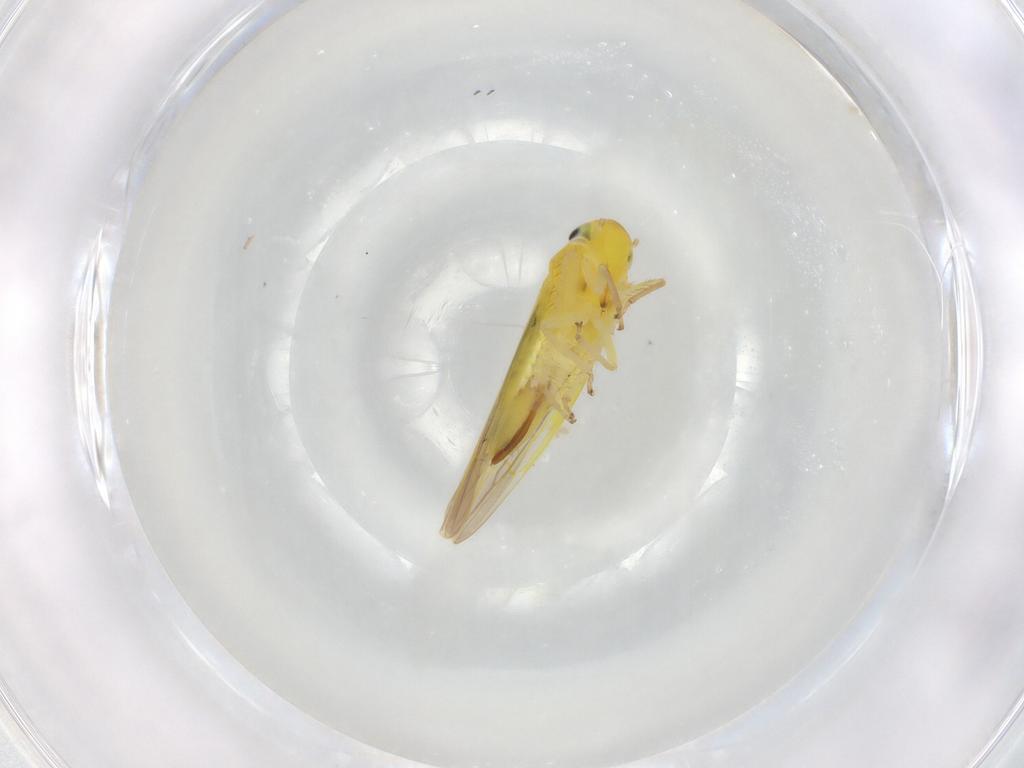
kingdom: Animalia
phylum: Arthropoda
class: Insecta
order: Hemiptera
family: Cicadellidae
